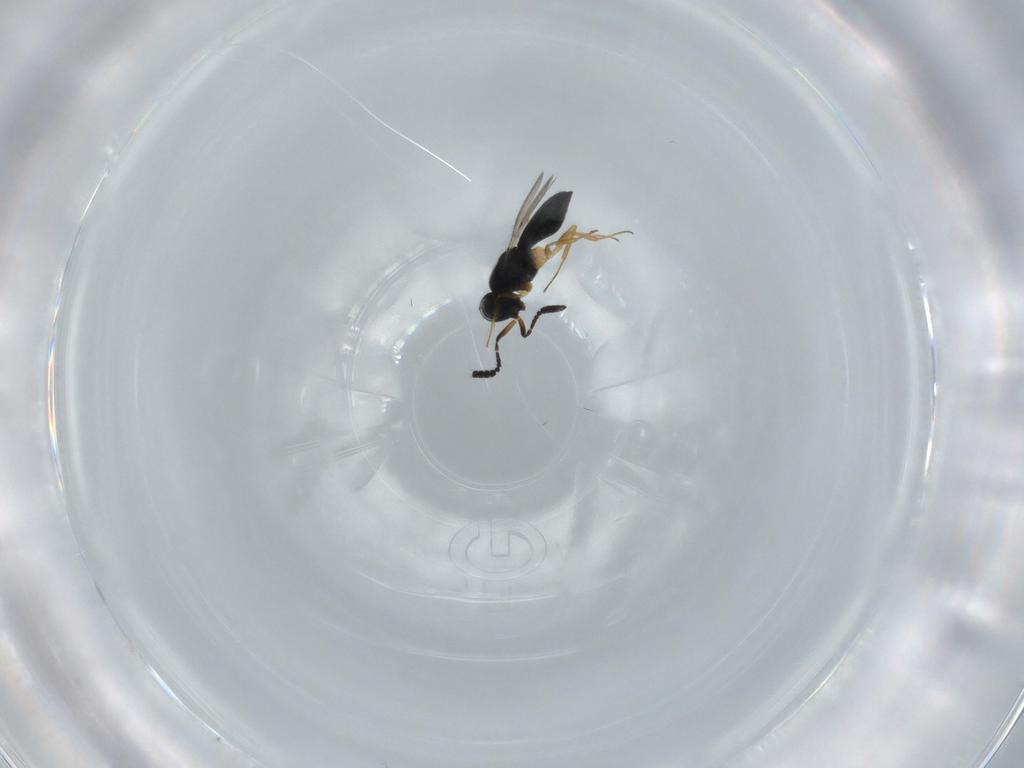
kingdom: Animalia
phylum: Arthropoda
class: Insecta
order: Hymenoptera
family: Scelionidae
